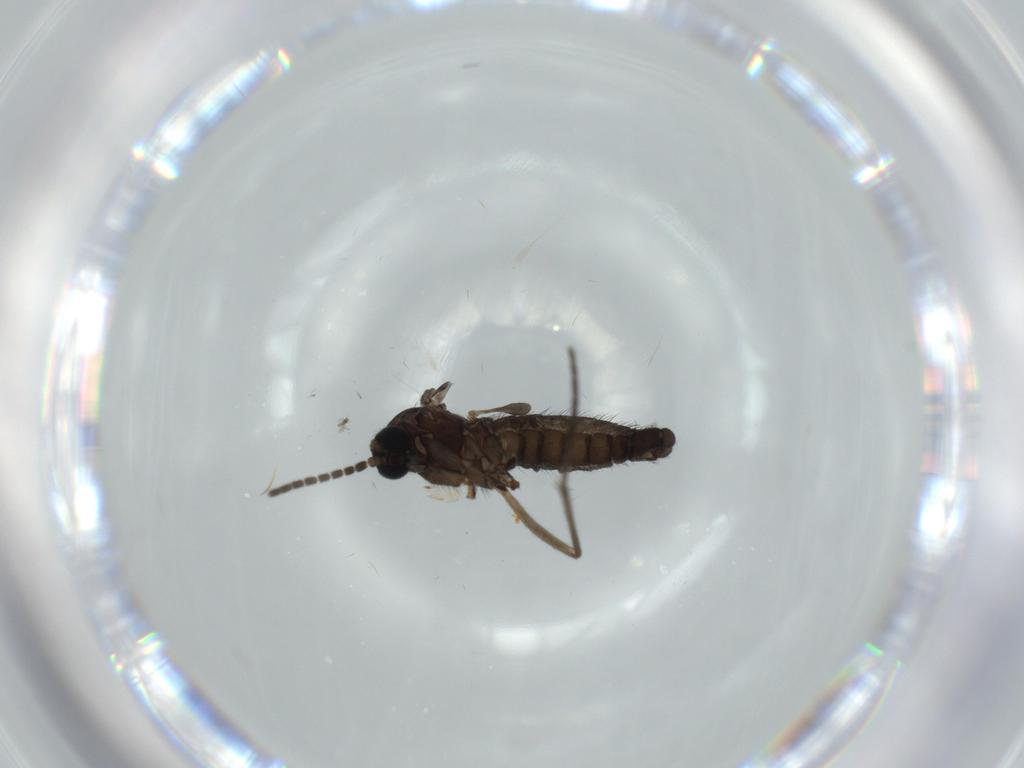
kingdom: Animalia
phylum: Arthropoda
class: Insecta
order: Diptera
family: Sciaridae
